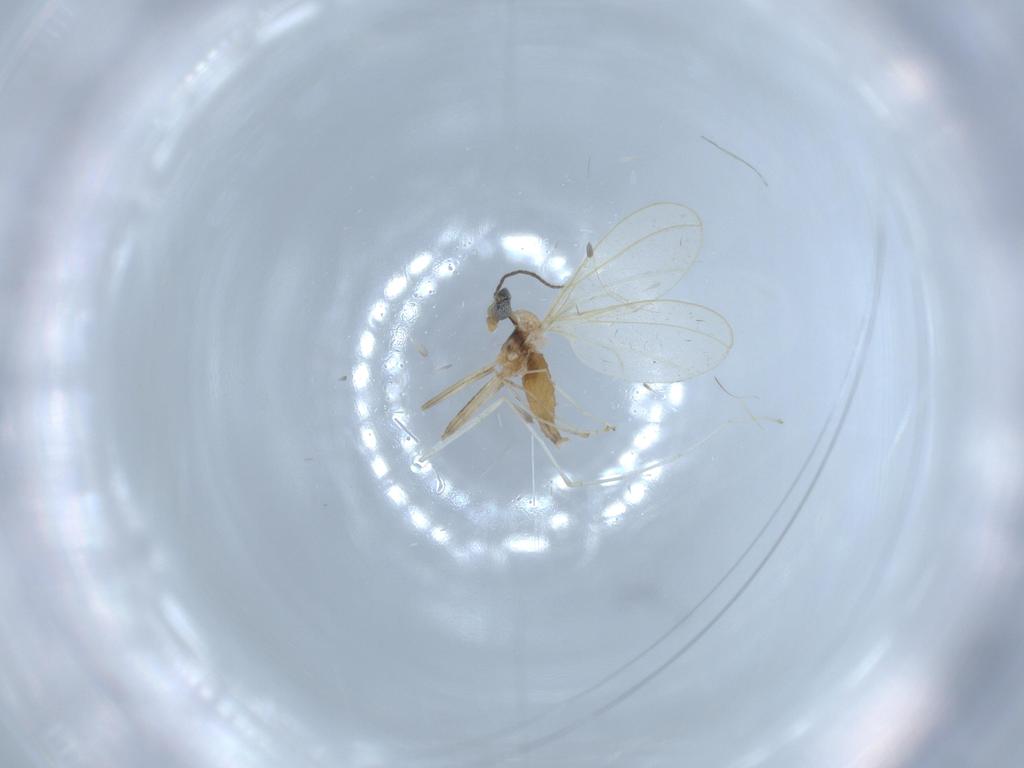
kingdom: Animalia
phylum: Arthropoda
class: Insecta
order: Diptera
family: Cecidomyiidae
